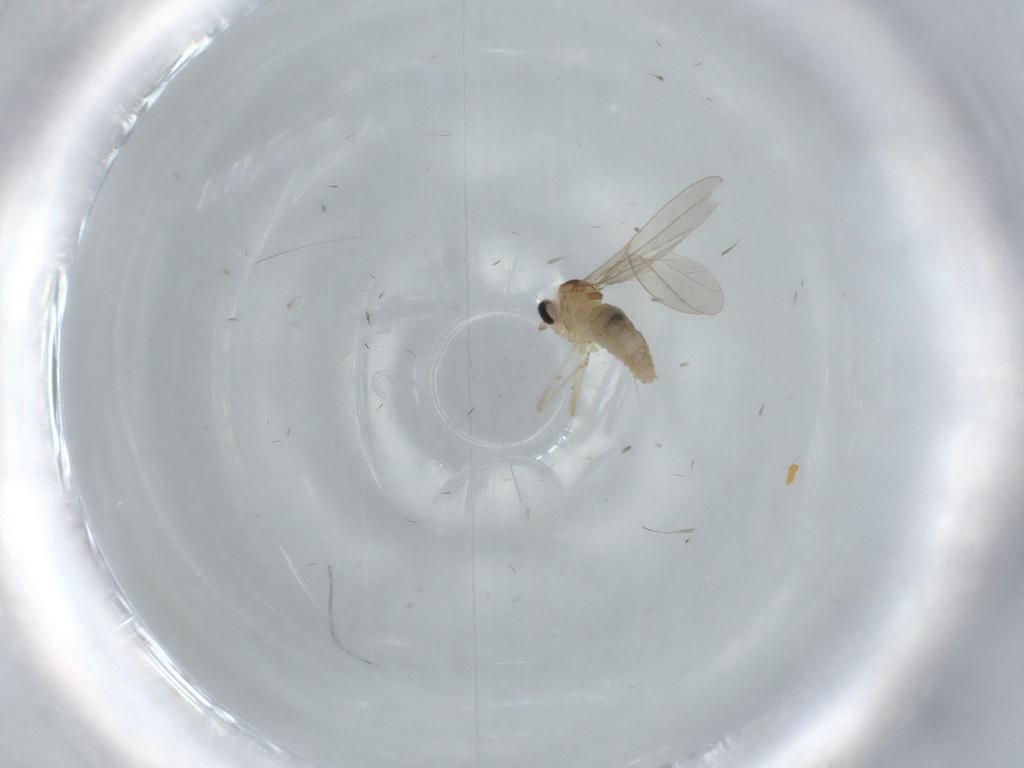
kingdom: Animalia
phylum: Arthropoda
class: Insecta
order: Diptera
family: Cecidomyiidae
